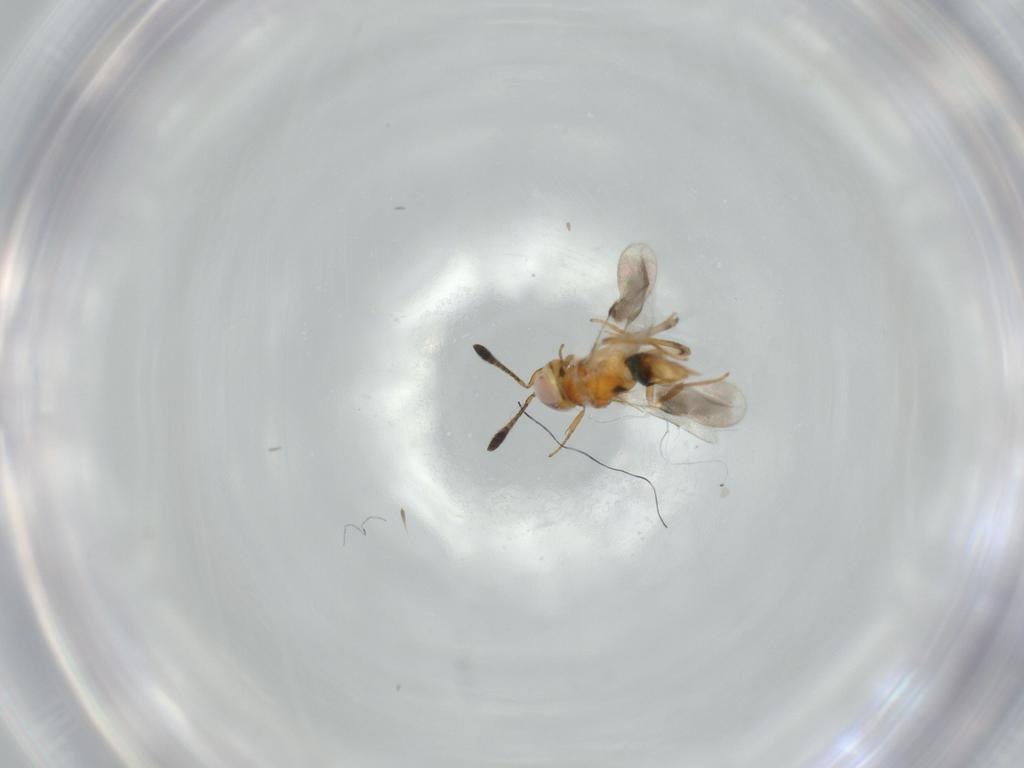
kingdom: Animalia
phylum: Arthropoda
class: Insecta
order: Hymenoptera
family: Encyrtidae
